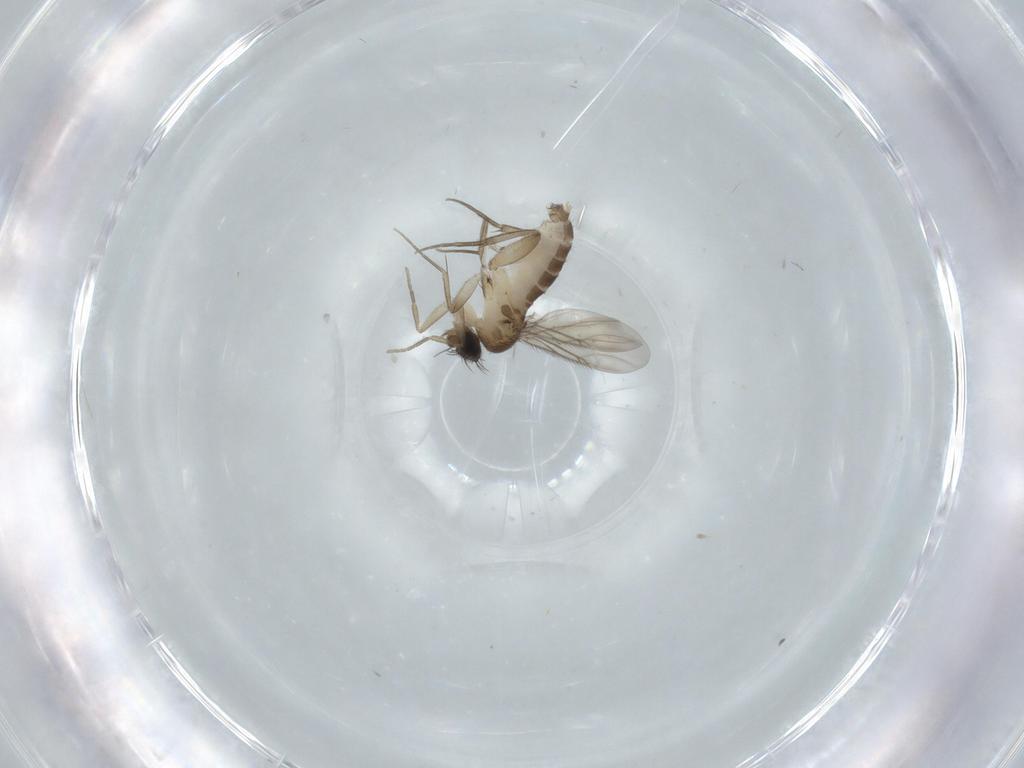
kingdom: Animalia
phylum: Arthropoda
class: Insecta
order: Diptera
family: Phoridae
